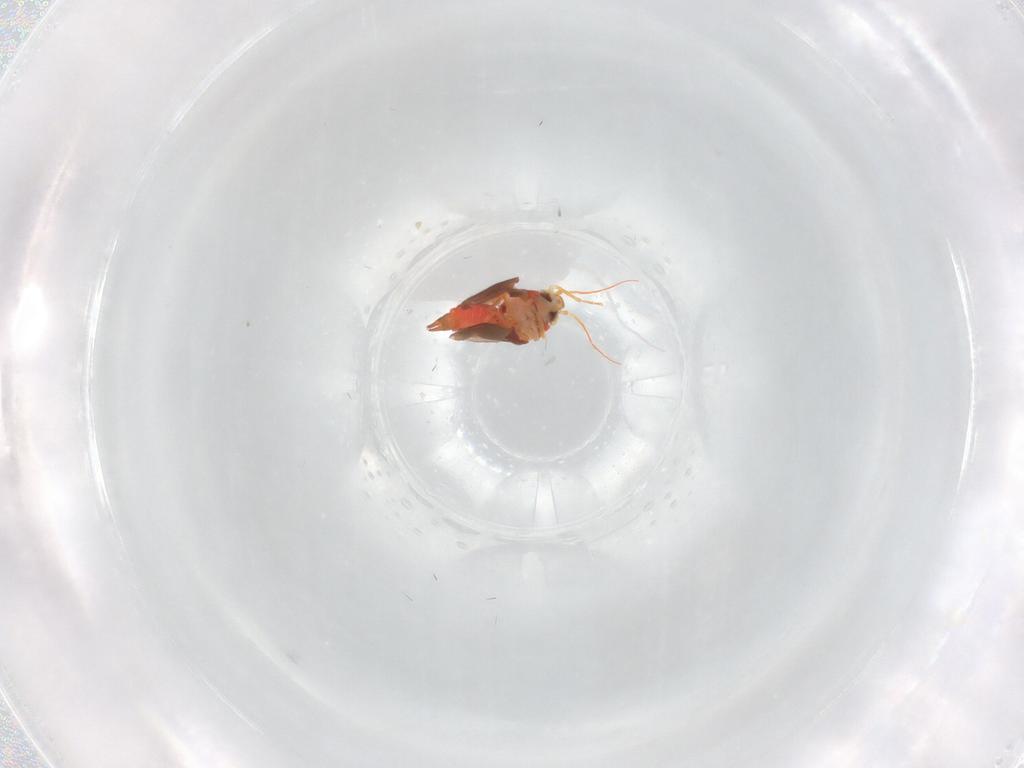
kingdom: Animalia
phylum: Arthropoda
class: Insecta
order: Hemiptera
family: Aleyrodidae
